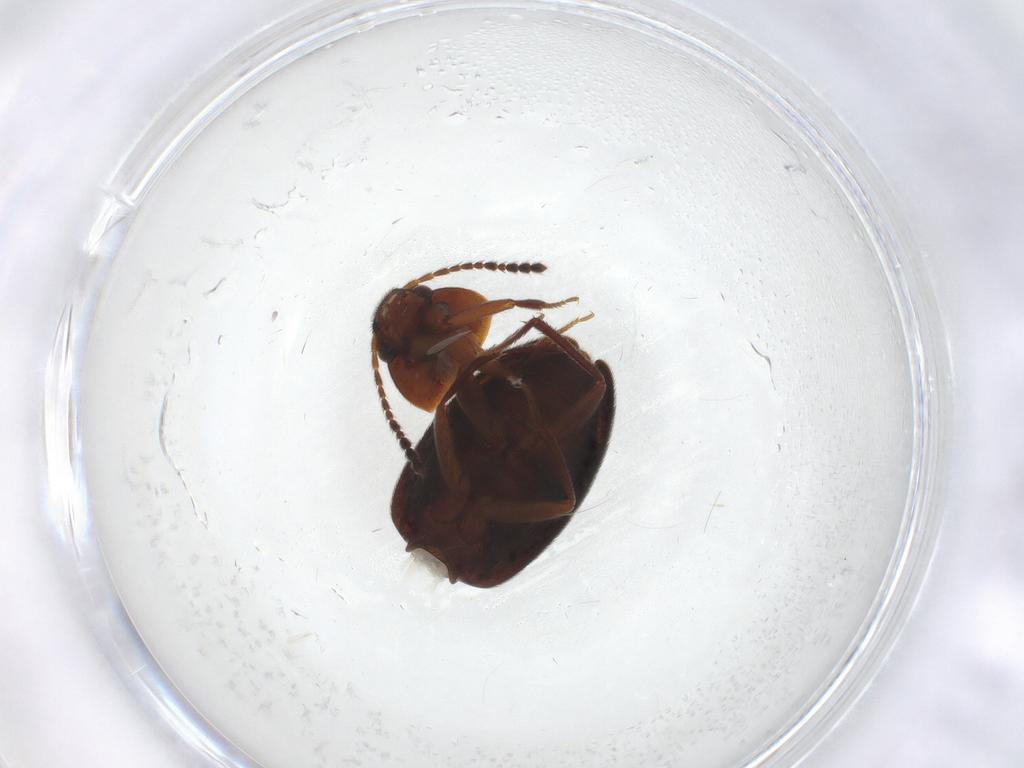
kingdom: Animalia
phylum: Arthropoda
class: Insecta
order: Coleoptera
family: Leiodidae
